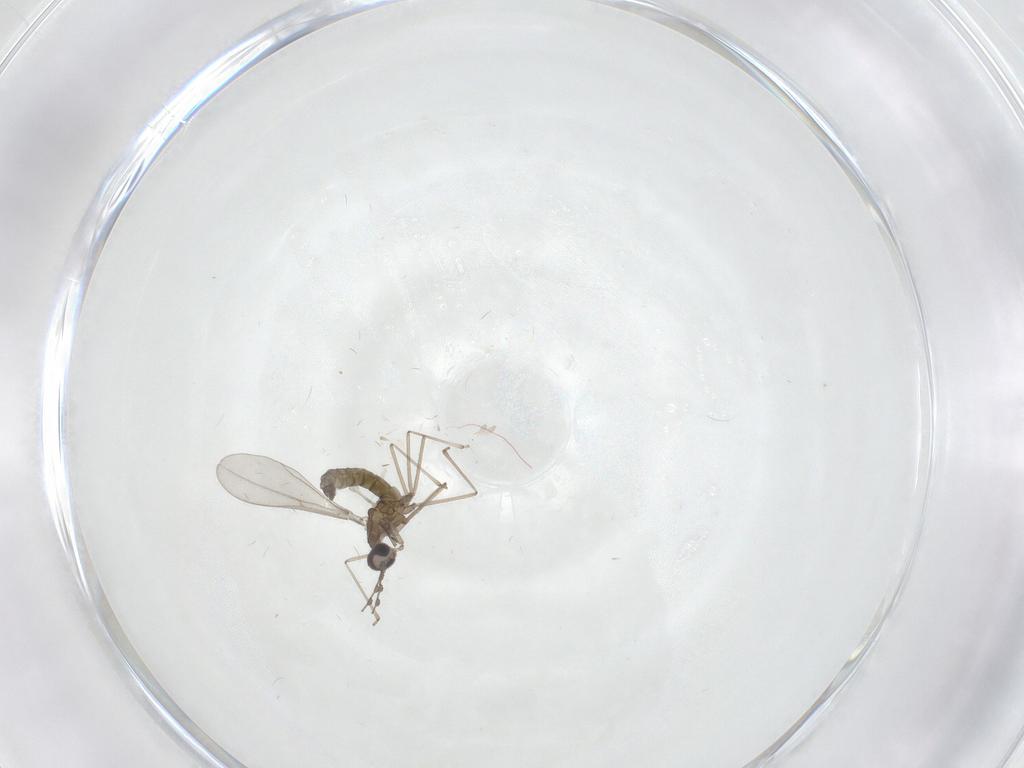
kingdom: Animalia
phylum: Arthropoda
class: Insecta
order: Diptera
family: Cecidomyiidae
